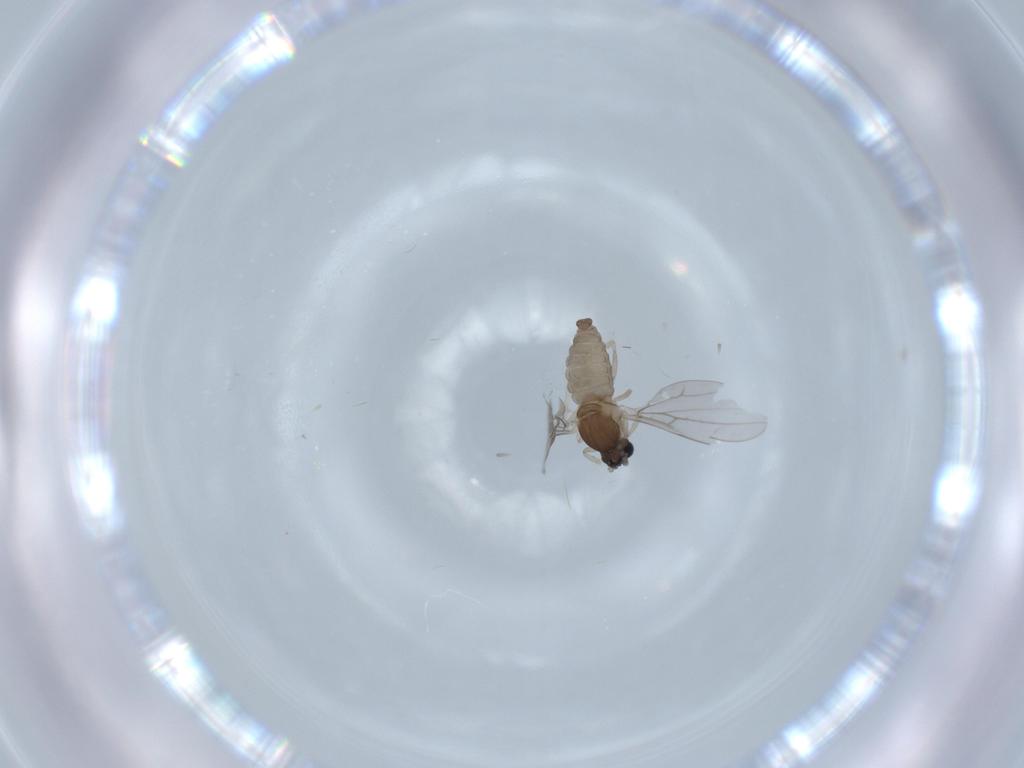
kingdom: Animalia
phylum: Arthropoda
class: Insecta
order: Diptera
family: Cecidomyiidae
